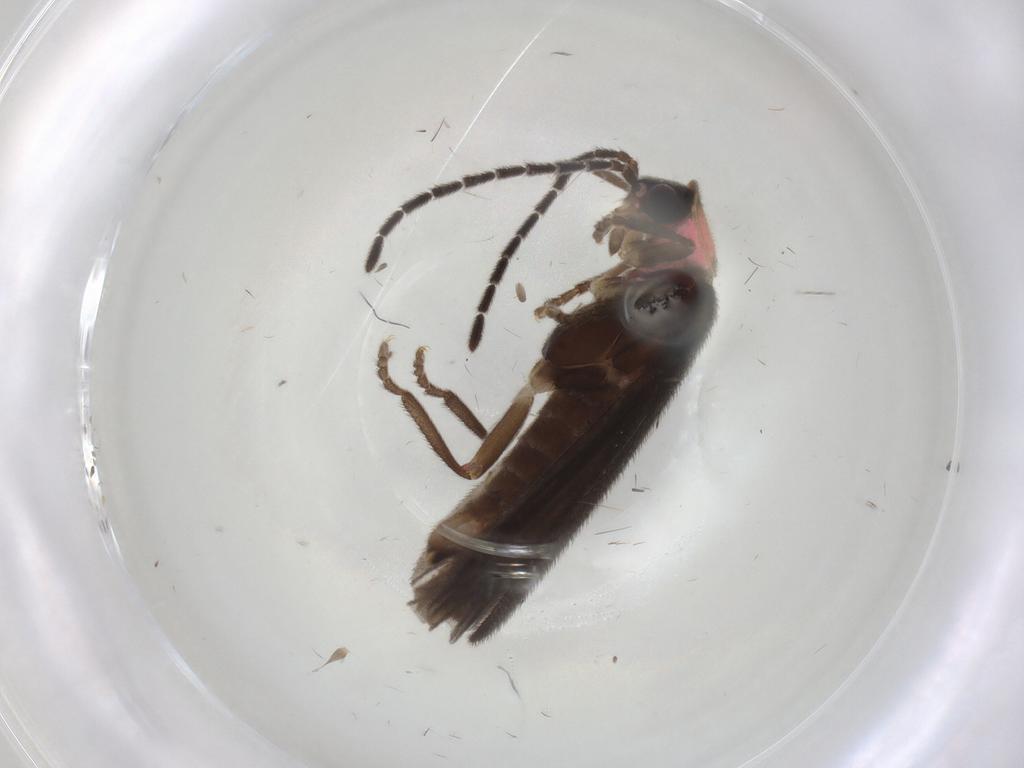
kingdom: Animalia
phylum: Arthropoda
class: Insecta
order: Coleoptera
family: Lampyridae
